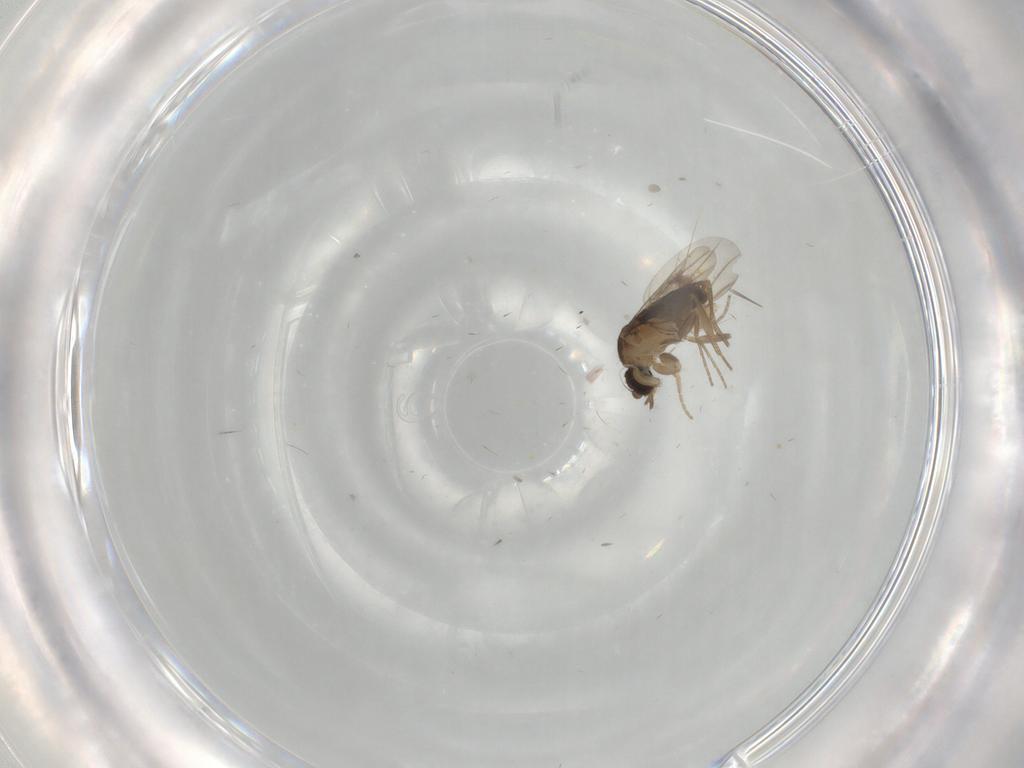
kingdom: Animalia
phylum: Arthropoda
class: Insecta
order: Diptera
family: Phoridae
